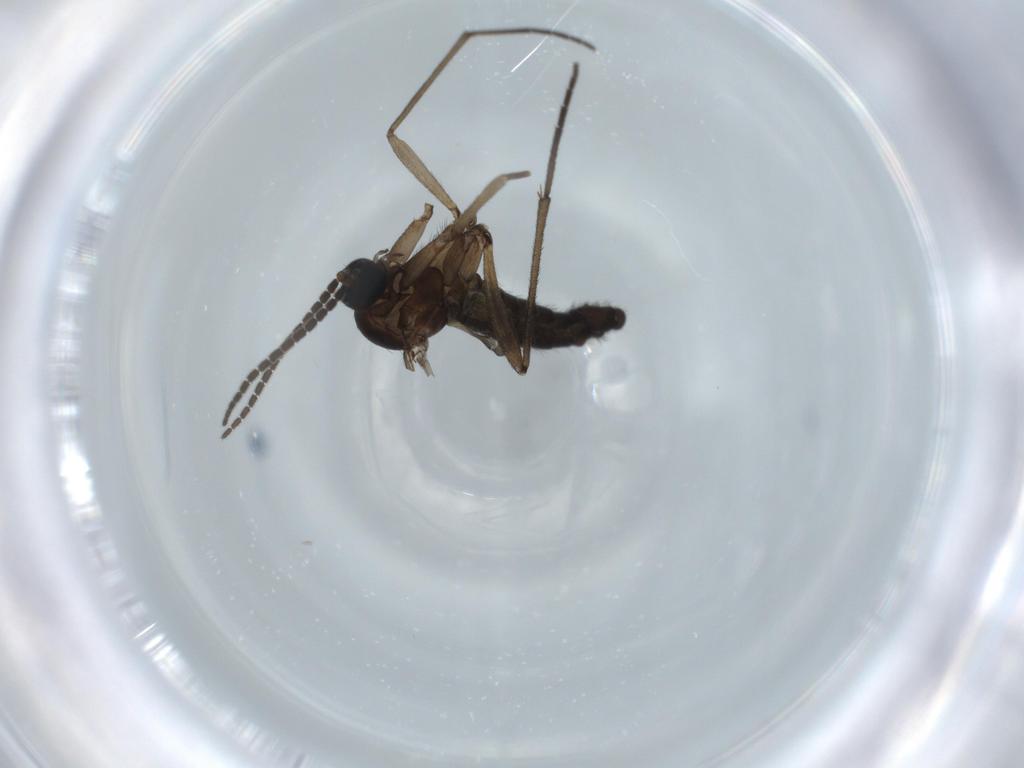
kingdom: Animalia
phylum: Arthropoda
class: Insecta
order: Diptera
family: Sciaridae
